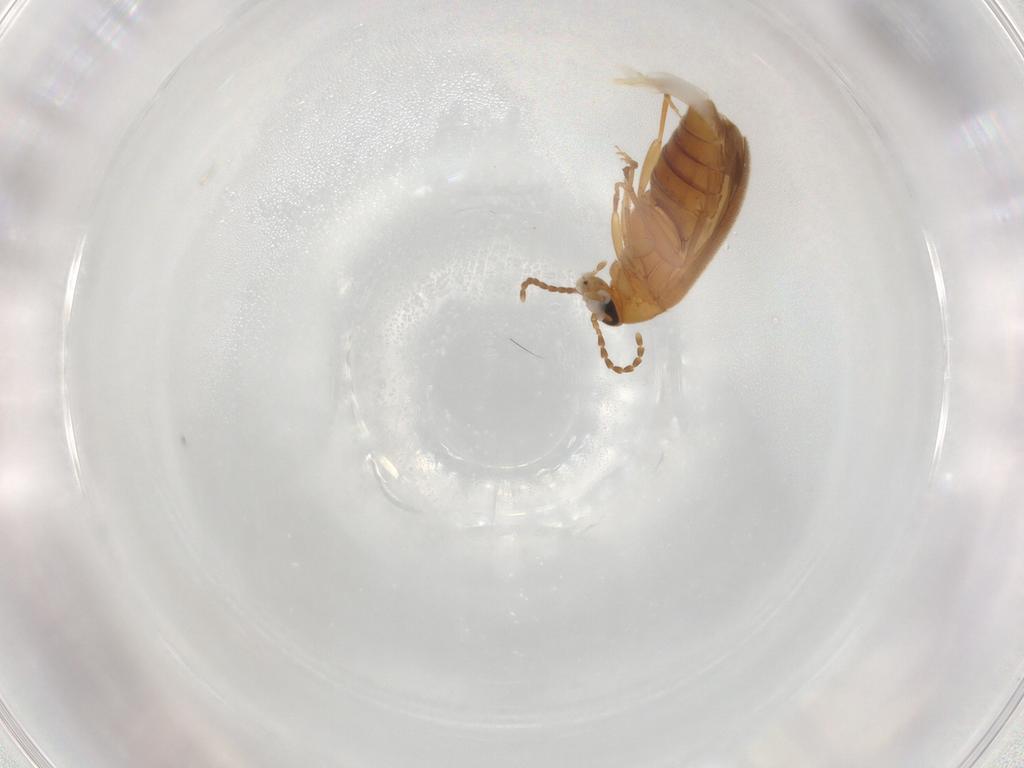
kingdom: Animalia
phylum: Arthropoda
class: Insecta
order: Coleoptera
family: Scraptiidae
